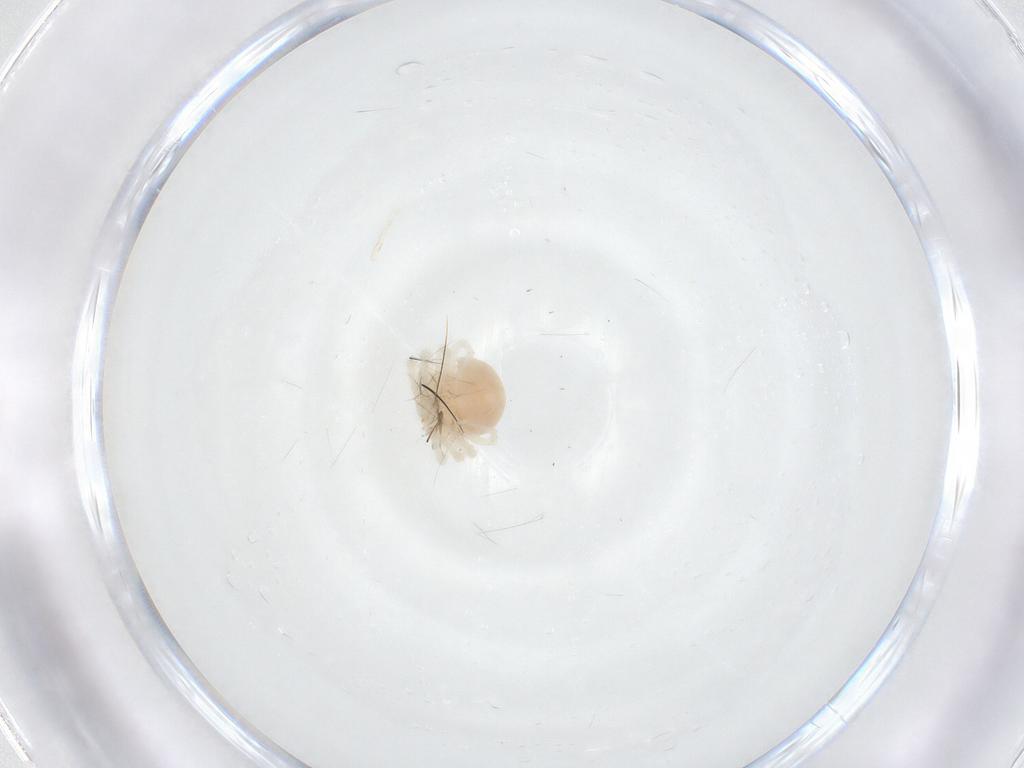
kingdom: Animalia
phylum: Arthropoda
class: Arachnida
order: Trombidiformes
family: Anystidae
